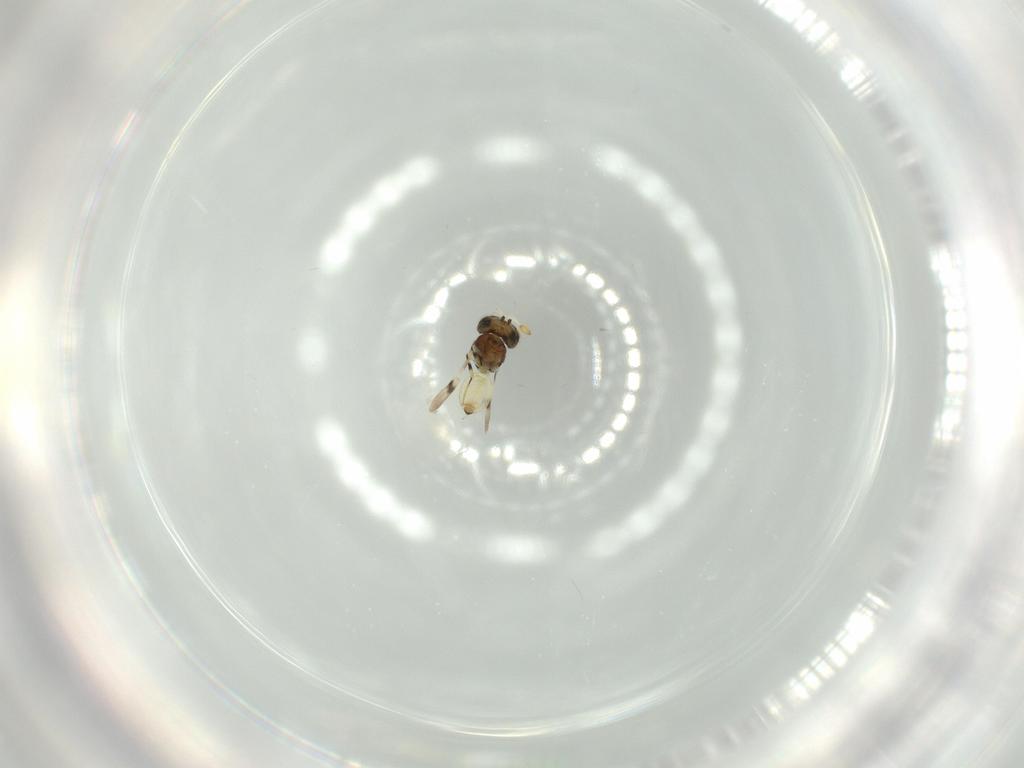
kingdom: Animalia
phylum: Arthropoda
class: Insecta
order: Hymenoptera
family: Scelionidae
